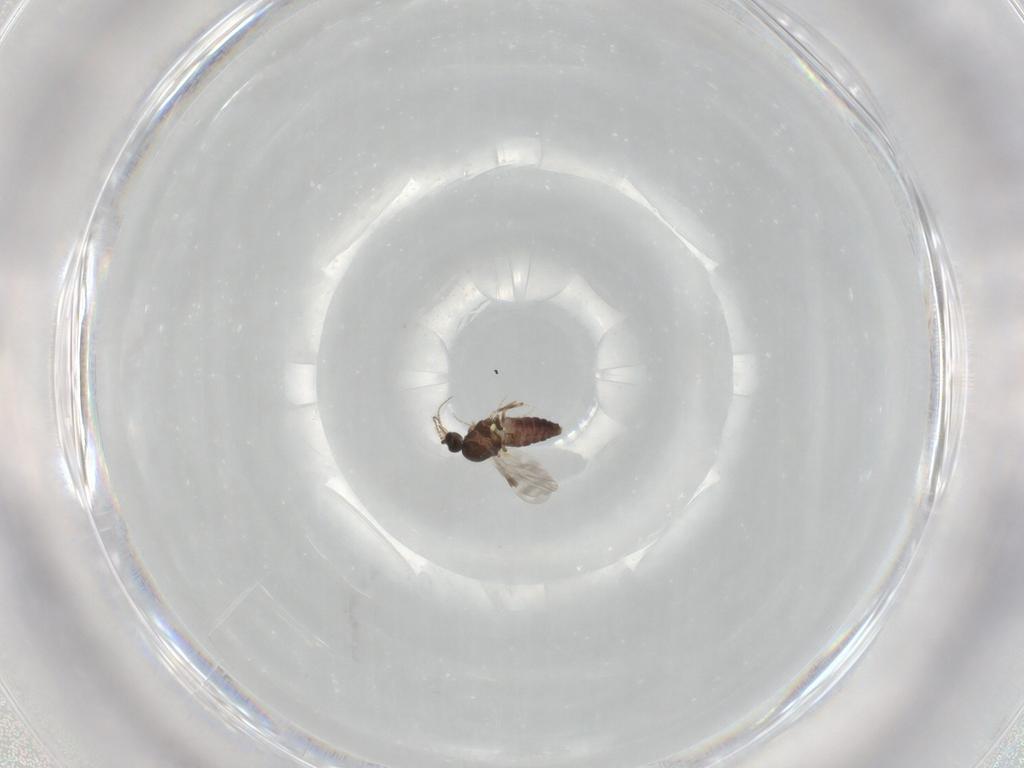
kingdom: Animalia
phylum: Arthropoda
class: Insecta
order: Diptera
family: Ceratopogonidae
